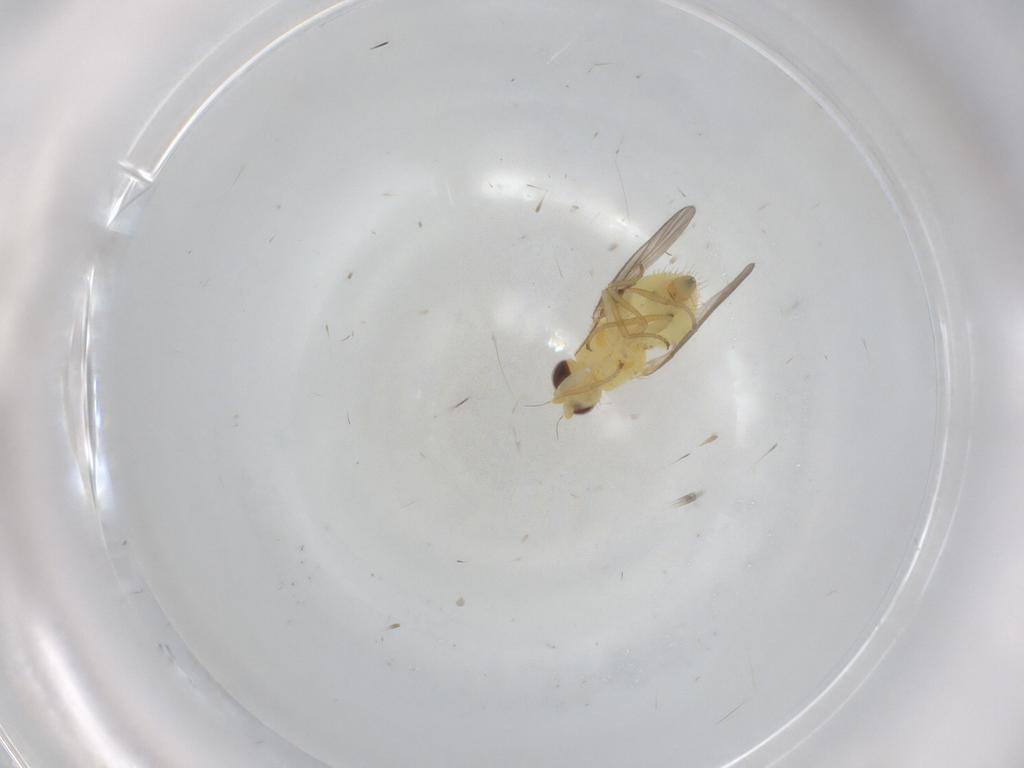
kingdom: Animalia
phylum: Arthropoda
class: Insecta
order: Diptera
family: Agromyzidae
